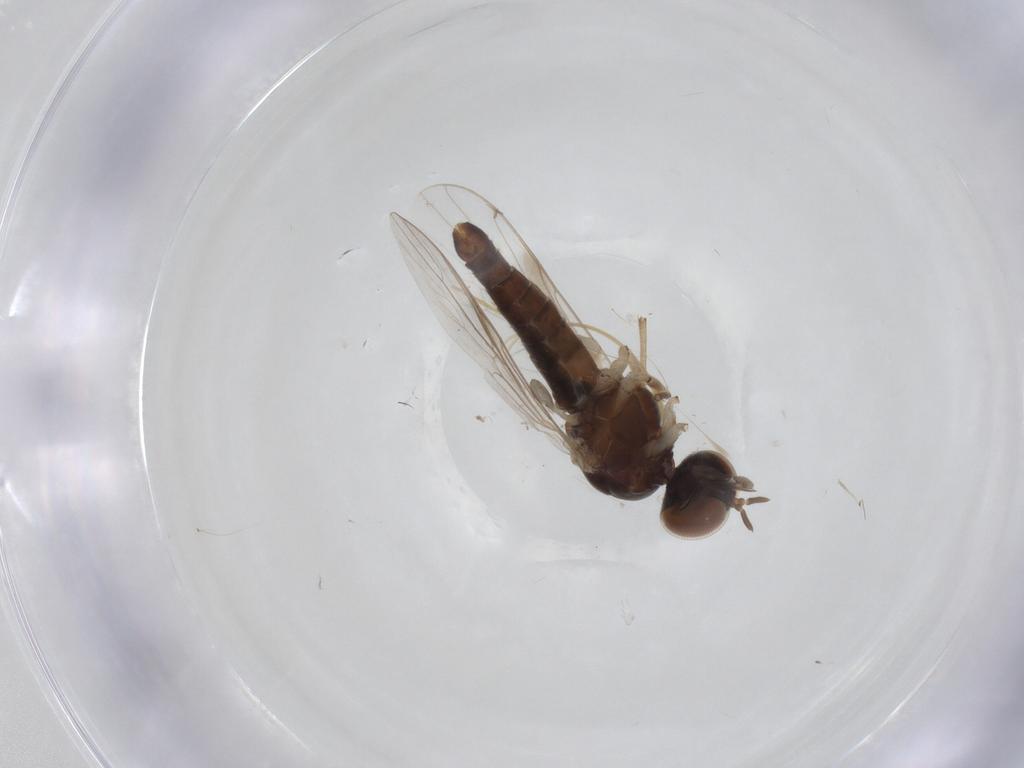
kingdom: Animalia
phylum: Arthropoda
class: Insecta
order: Diptera
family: Scenopinidae
